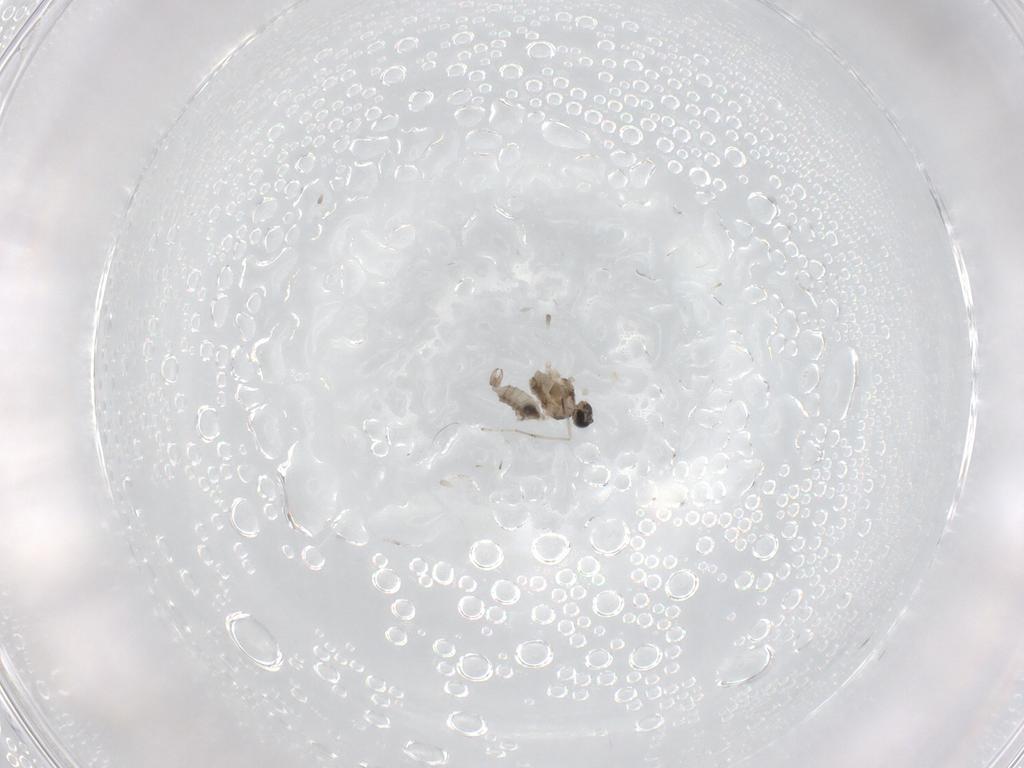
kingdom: Animalia
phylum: Arthropoda
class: Insecta
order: Diptera
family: Cecidomyiidae
